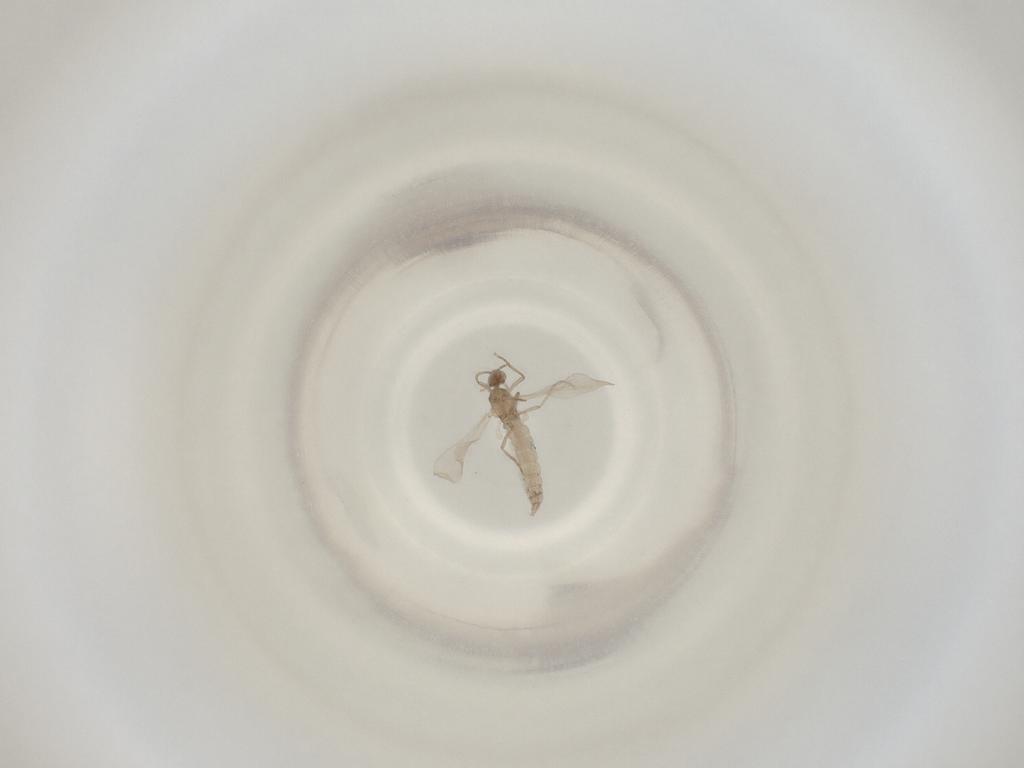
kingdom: Animalia
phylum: Arthropoda
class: Insecta
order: Diptera
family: Cecidomyiidae
